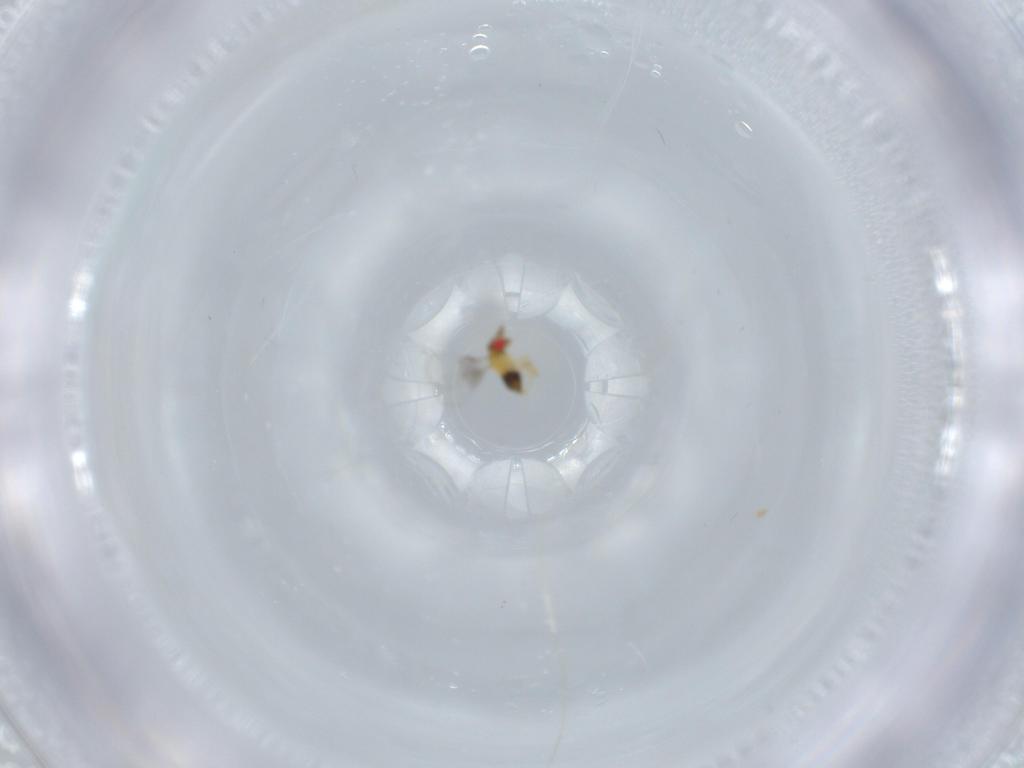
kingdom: Animalia
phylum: Arthropoda
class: Insecta
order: Hymenoptera
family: Trichogrammatidae
